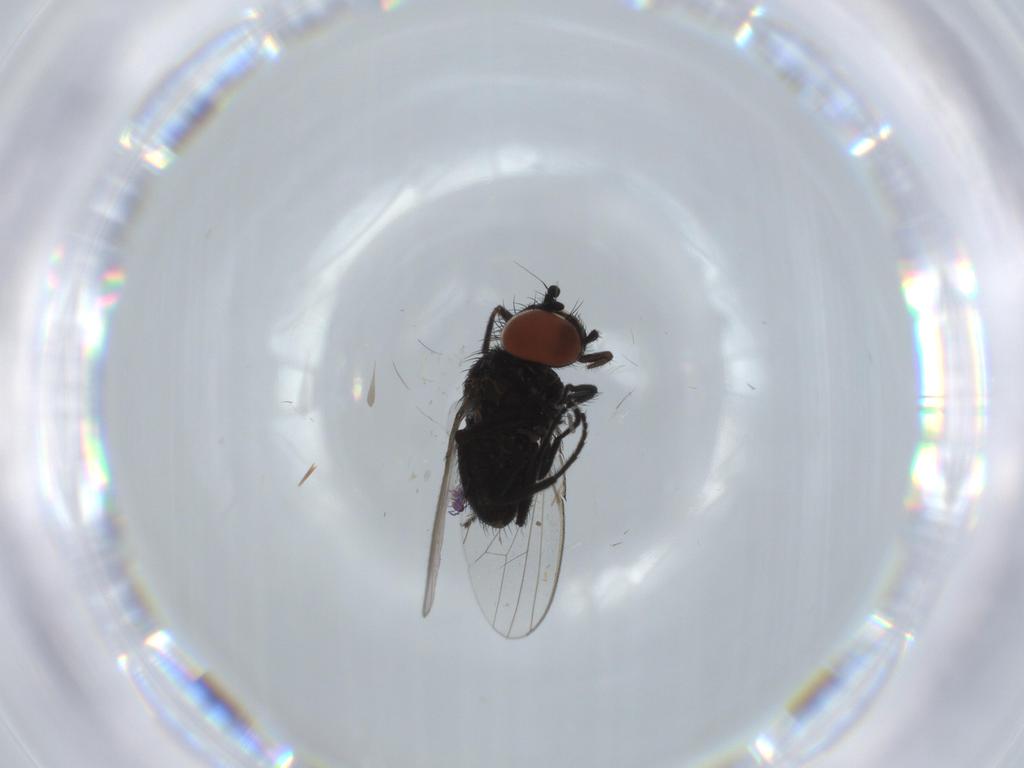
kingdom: Animalia
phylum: Arthropoda
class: Insecta
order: Diptera
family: Milichiidae
